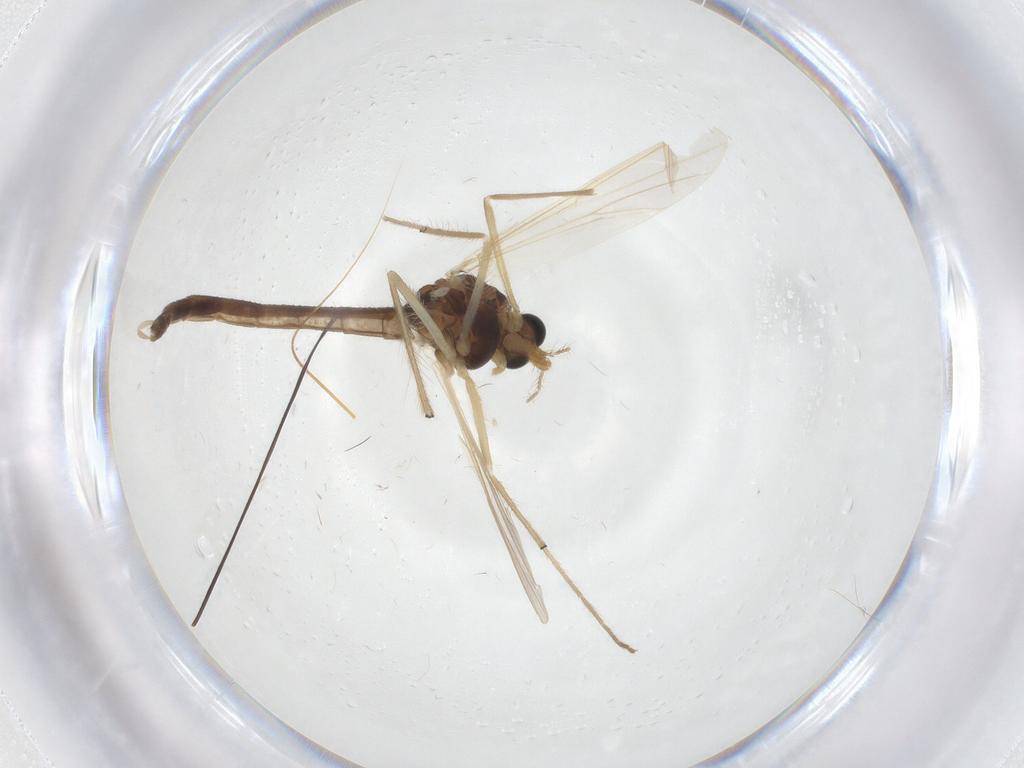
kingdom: Animalia
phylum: Arthropoda
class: Insecta
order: Diptera
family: Chironomidae
